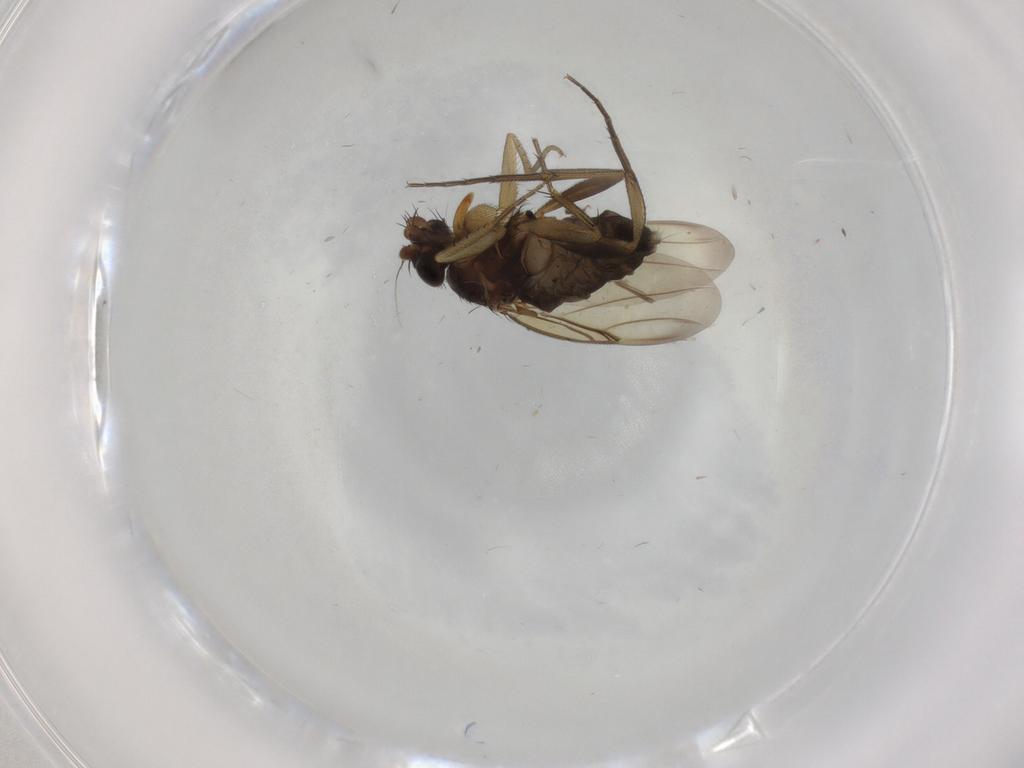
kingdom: Animalia
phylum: Arthropoda
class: Insecta
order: Diptera
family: Phoridae
